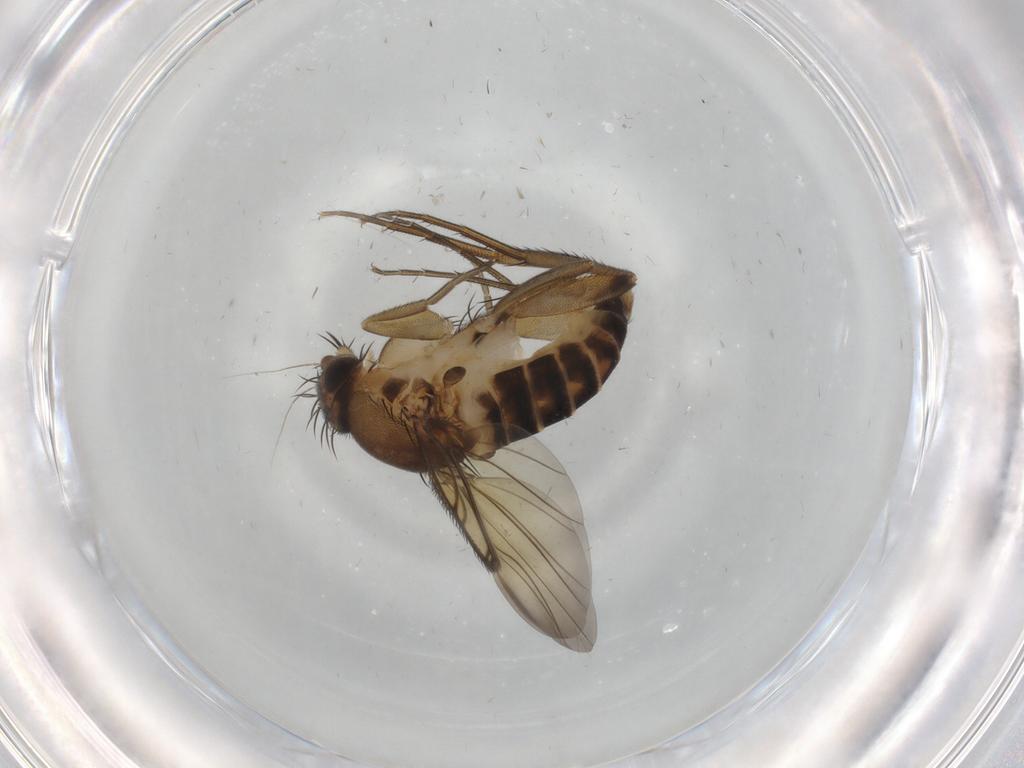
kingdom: Animalia
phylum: Arthropoda
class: Insecta
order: Diptera
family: Phoridae
